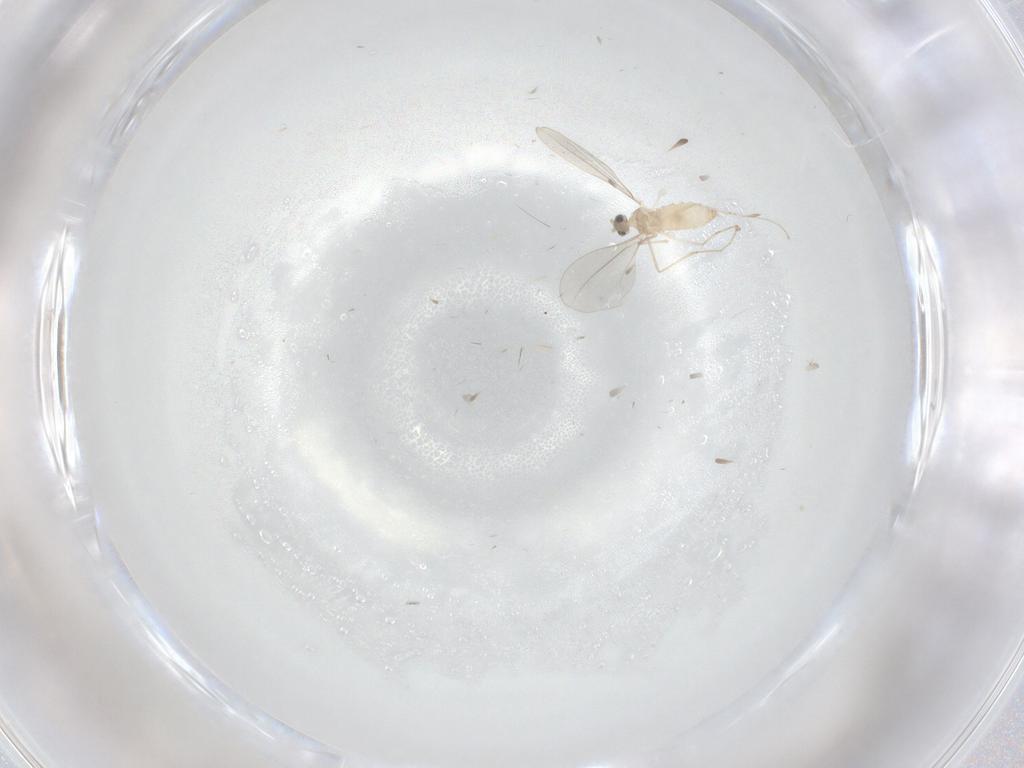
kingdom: Animalia
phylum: Arthropoda
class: Insecta
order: Diptera
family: Cecidomyiidae
